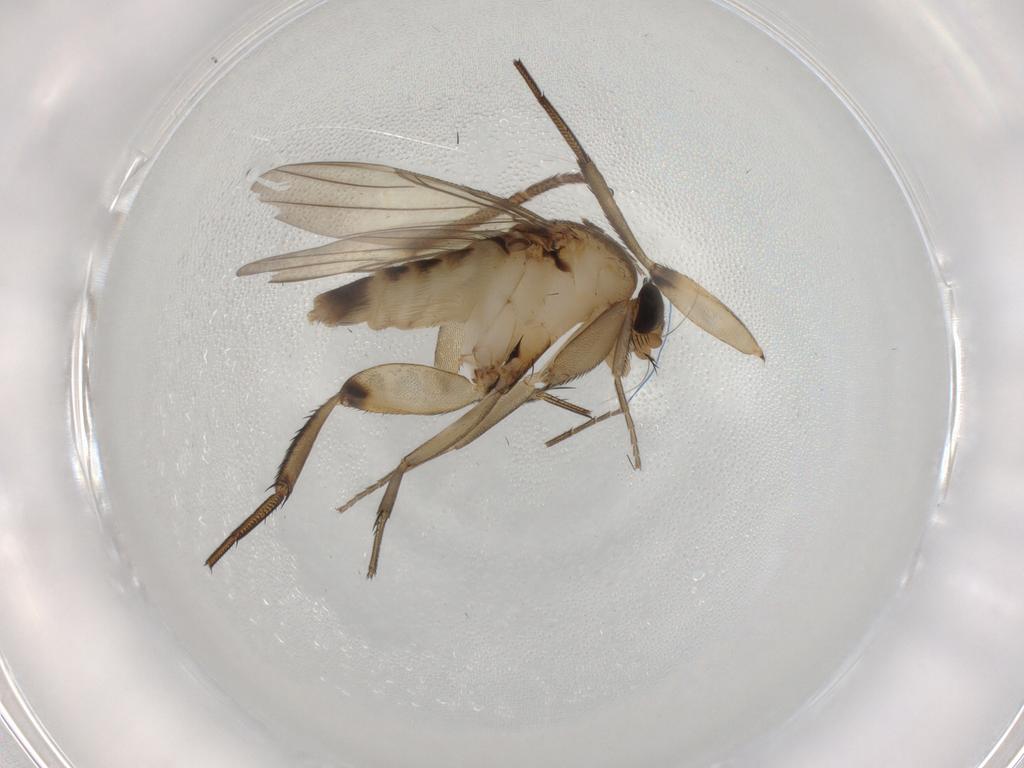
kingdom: Animalia
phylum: Arthropoda
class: Insecta
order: Diptera
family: Phoridae
